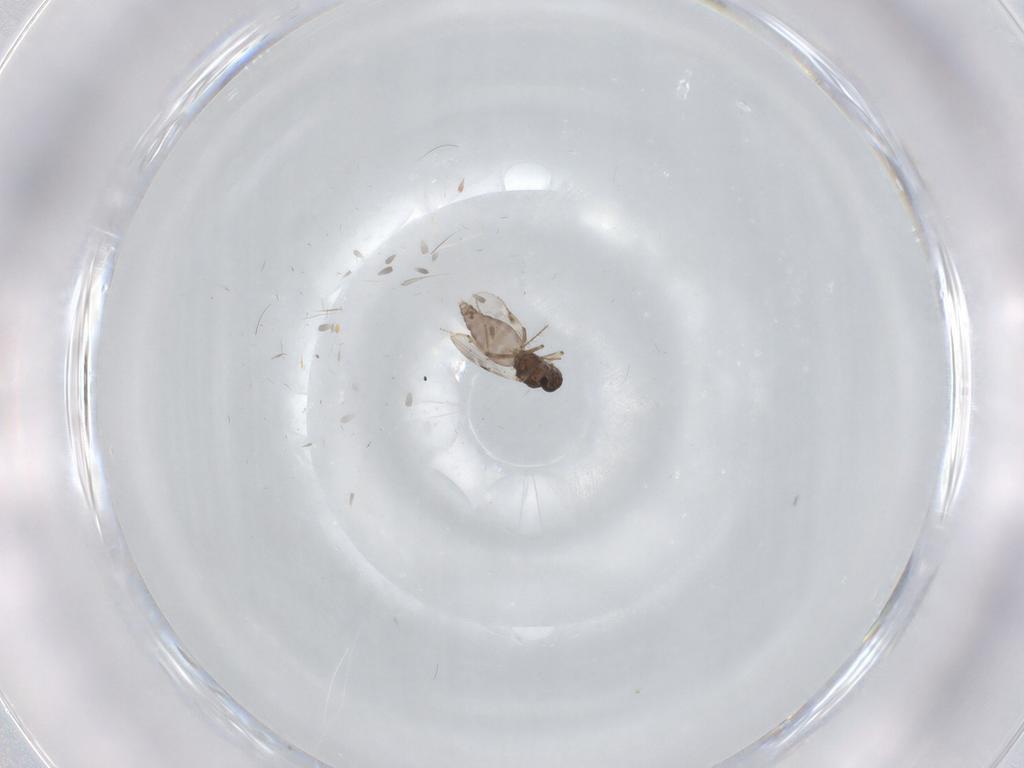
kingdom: Animalia
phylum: Arthropoda
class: Insecta
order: Diptera
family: Psychodidae
